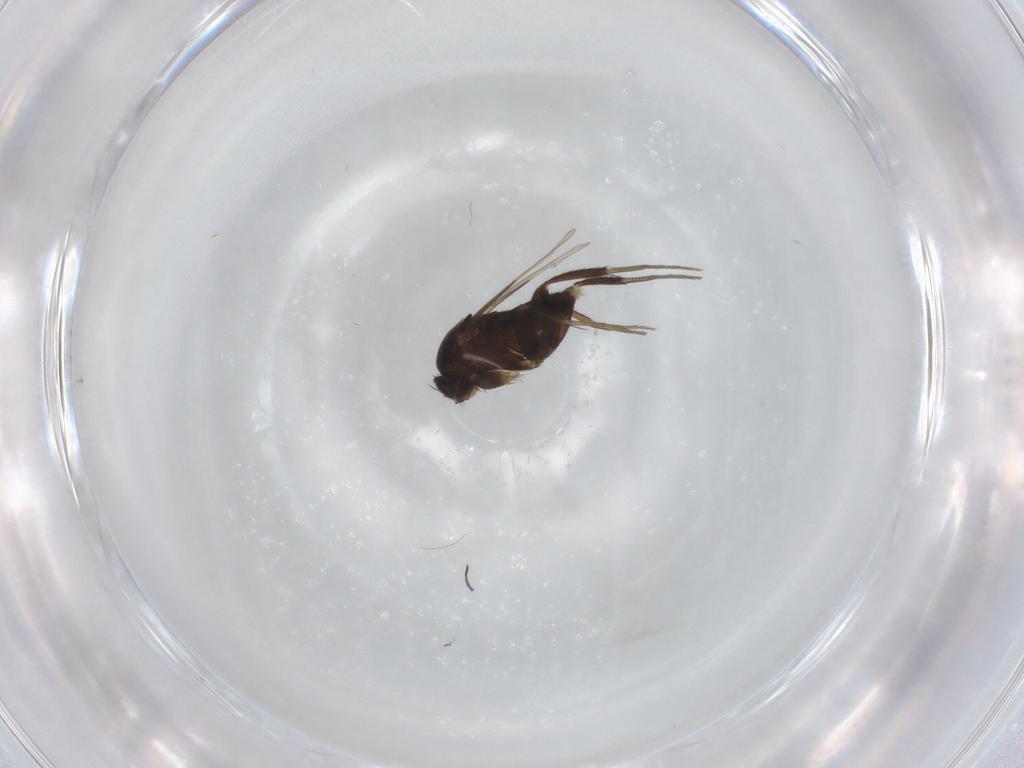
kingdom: Animalia
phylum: Arthropoda
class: Insecta
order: Diptera
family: Phoridae
